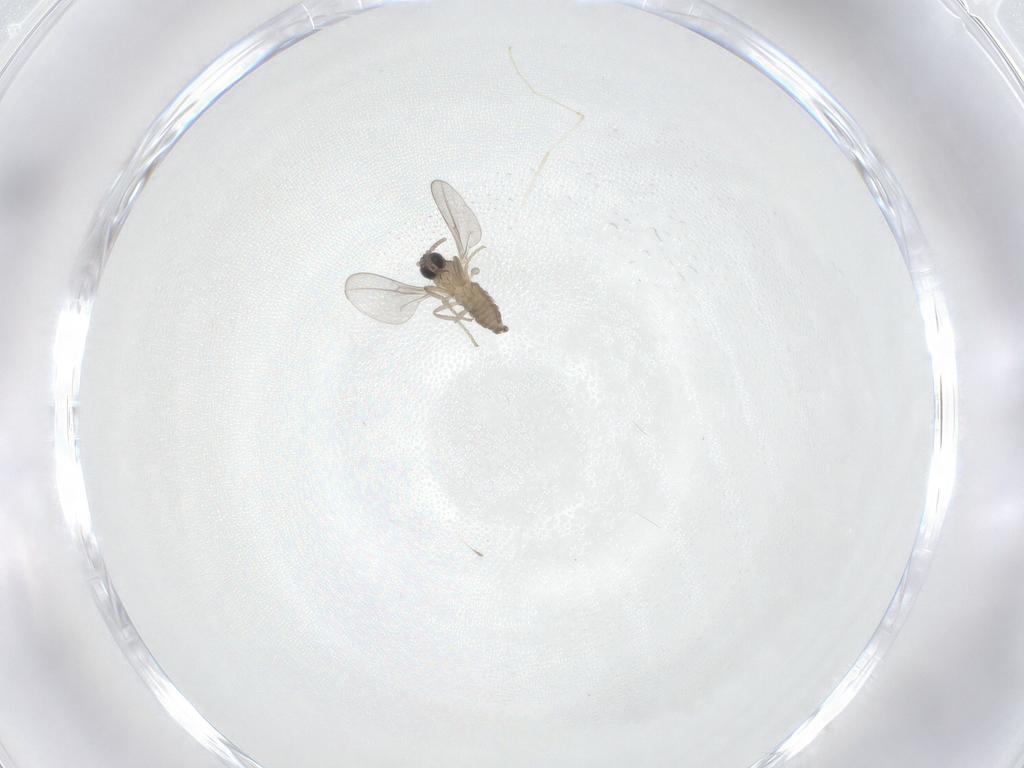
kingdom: Animalia
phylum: Arthropoda
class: Insecta
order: Diptera
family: Cecidomyiidae
